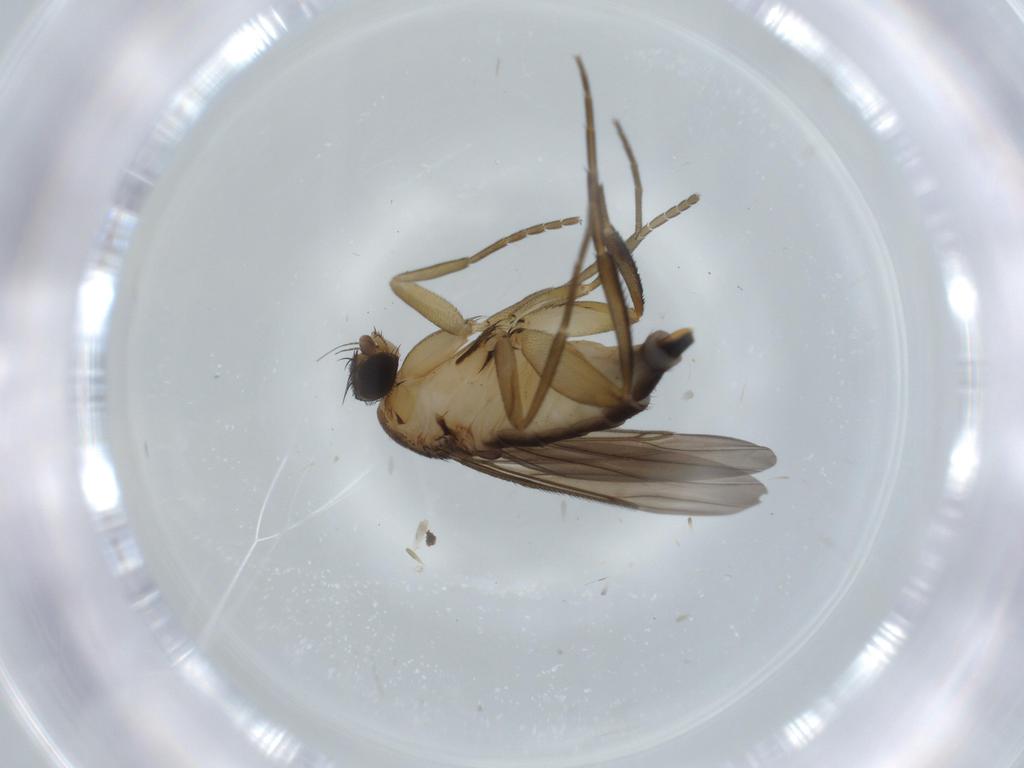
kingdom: Animalia
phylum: Arthropoda
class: Insecta
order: Diptera
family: Phoridae
